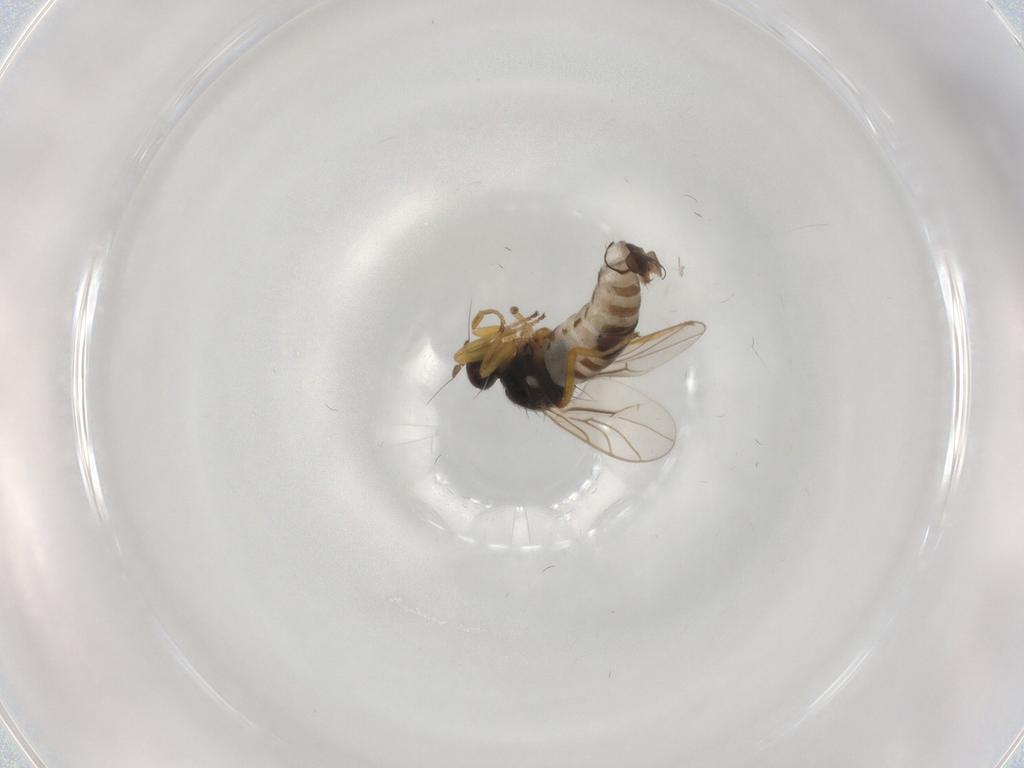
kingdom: Animalia
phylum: Arthropoda
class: Insecta
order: Diptera
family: Hybotidae
